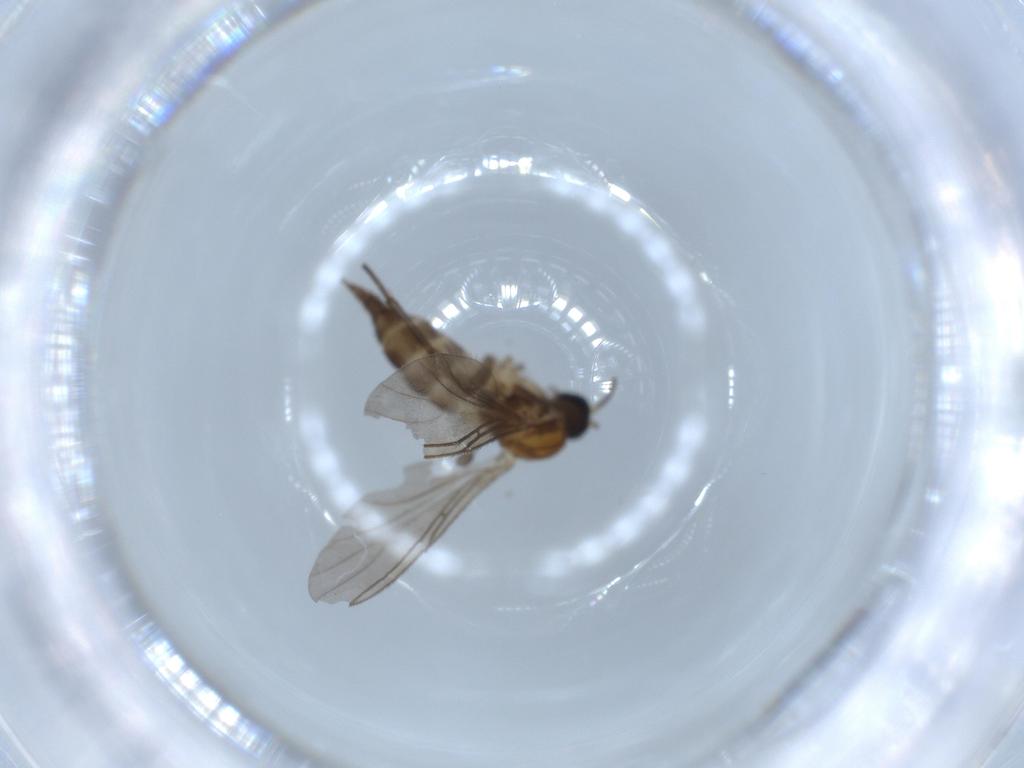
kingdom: Animalia
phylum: Arthropoda
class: Insecta
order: Diptera
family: Sciaridae
